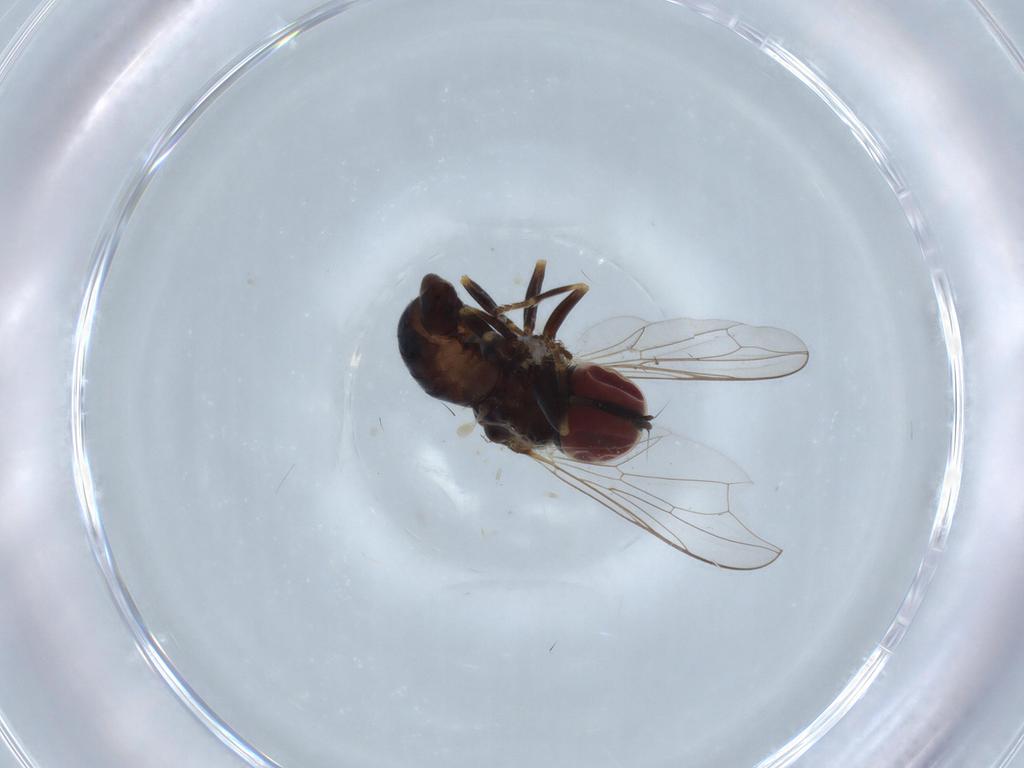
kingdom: Animalia
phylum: Arthropoda
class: Insecta
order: Diptera
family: Pipunculidae
